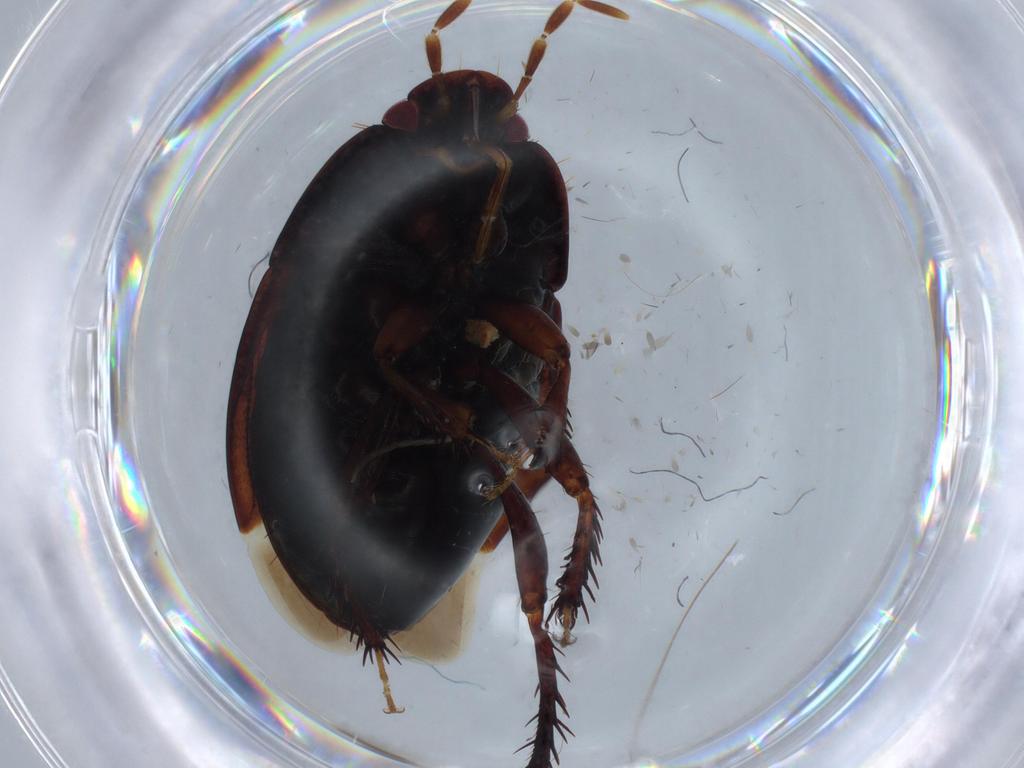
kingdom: Animalia
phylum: Arthropoda
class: Insecta
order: Hemiptera
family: Cydnidae
